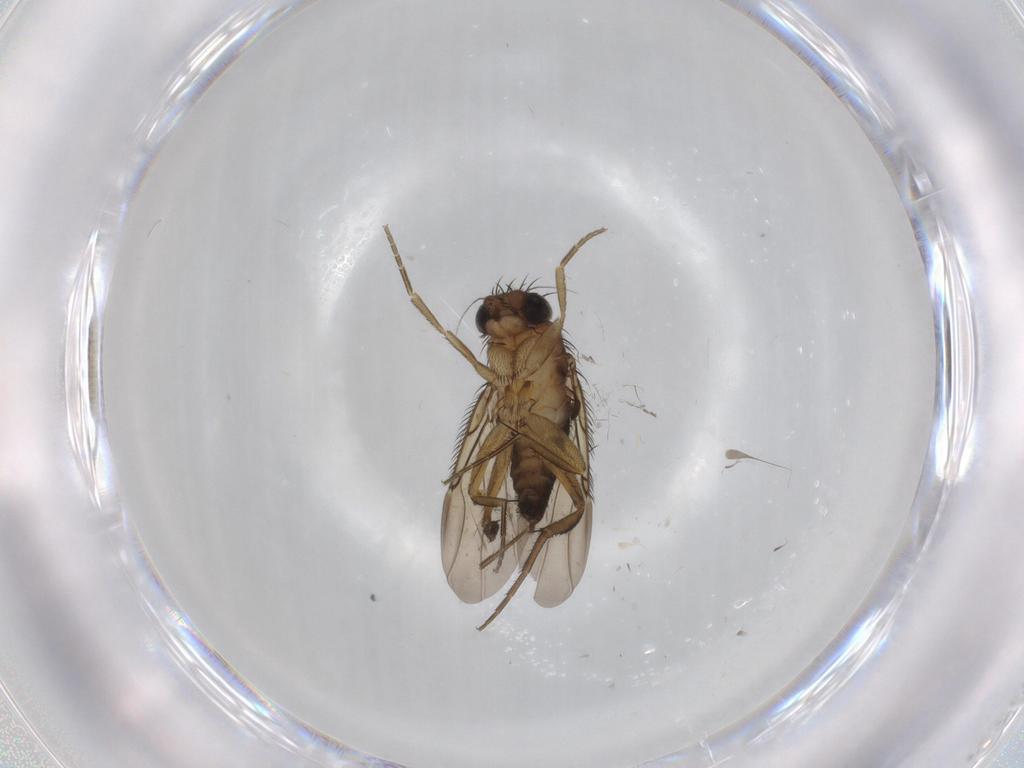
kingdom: Animalia
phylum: Arthropoda
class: Insecta
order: Diptera
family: Phoridae
